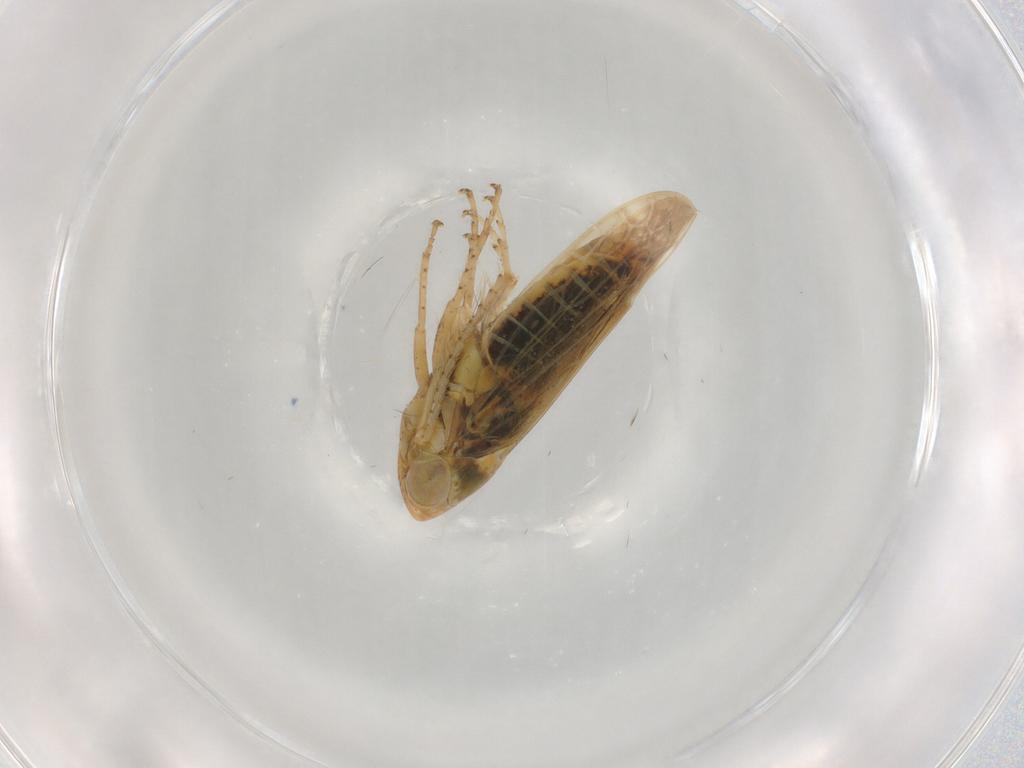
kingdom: Animalia
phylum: Arthropoda
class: Insecta
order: Hemiptera
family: Cicadellidae
